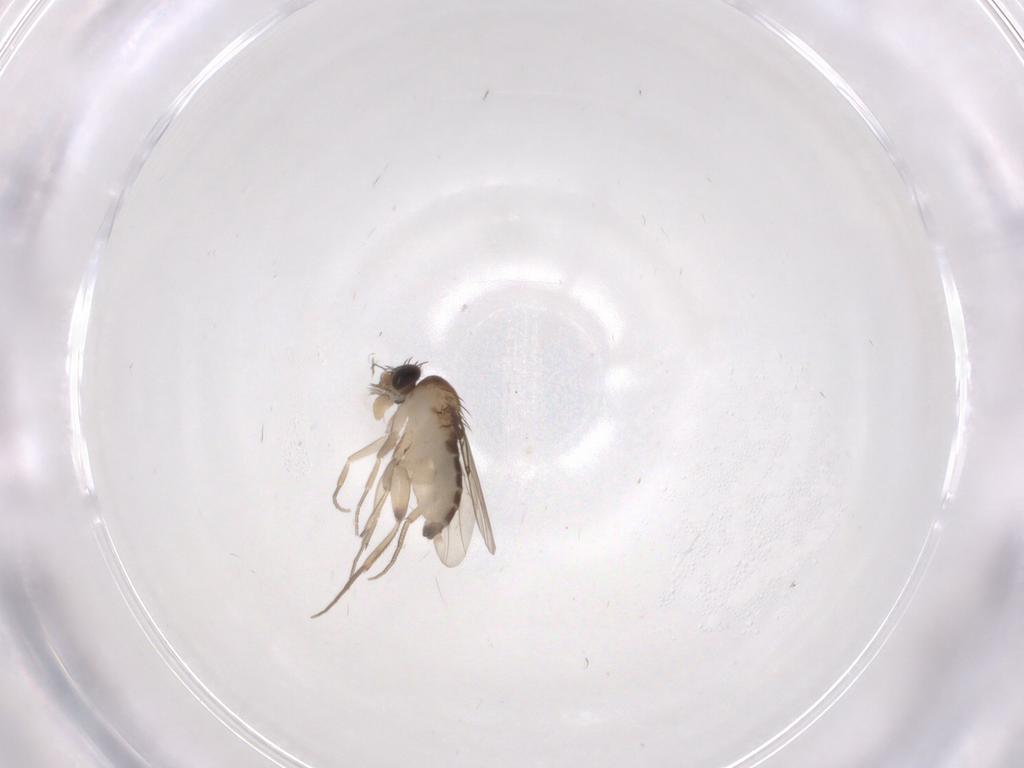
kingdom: Animalia
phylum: Arthropoda
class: Insecta
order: Diptera
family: Phoridae
